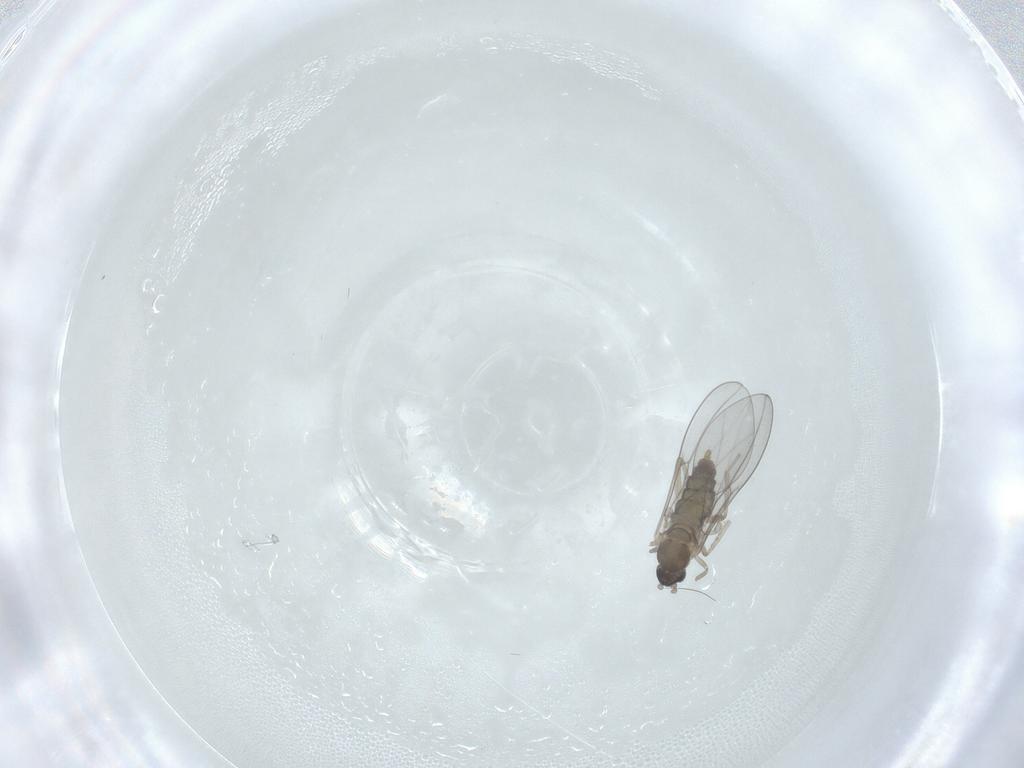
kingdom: Animalia
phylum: Arthropoda
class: Insecta
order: Diptera
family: Cecidomyiidae
